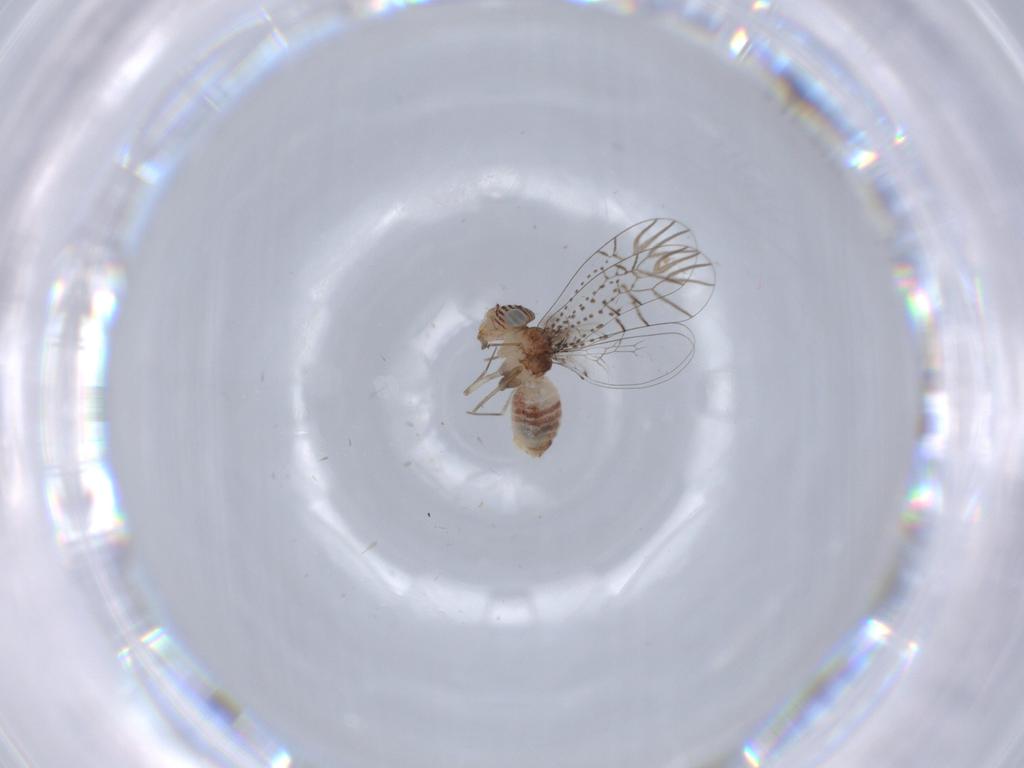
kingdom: Animalia
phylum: Arthropoda
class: Insecta
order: Psocodea
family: Caeciliusidae
